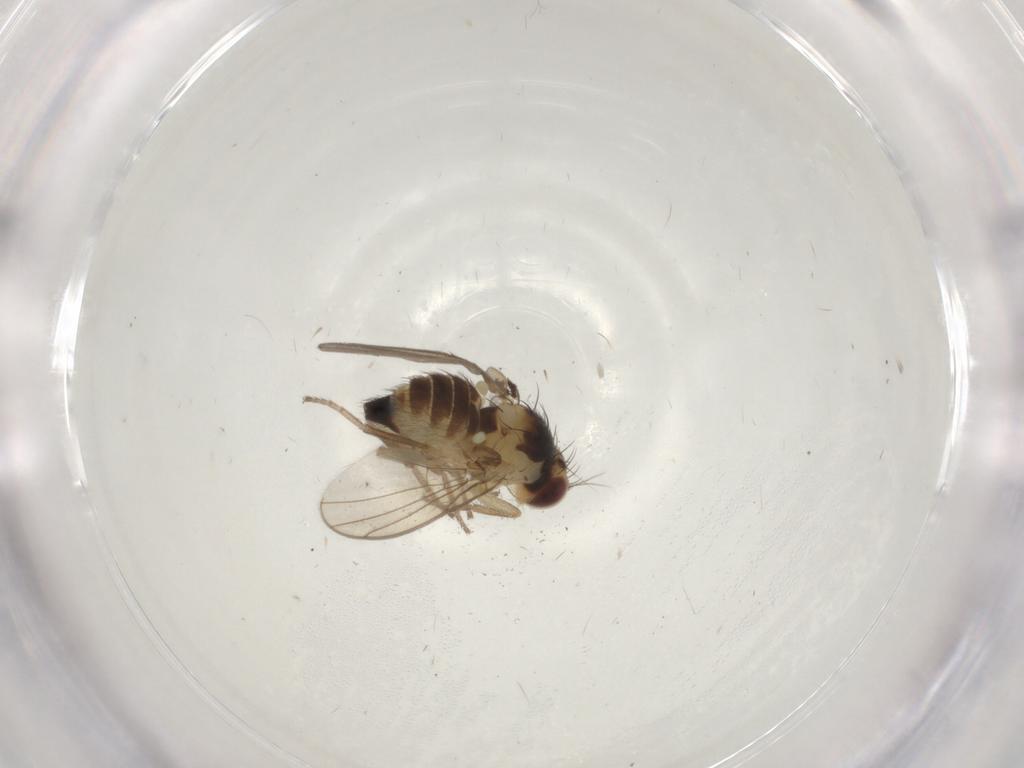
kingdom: Animalia
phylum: Arthropoda
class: Insecta
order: Diptera
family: Agromyzidae
